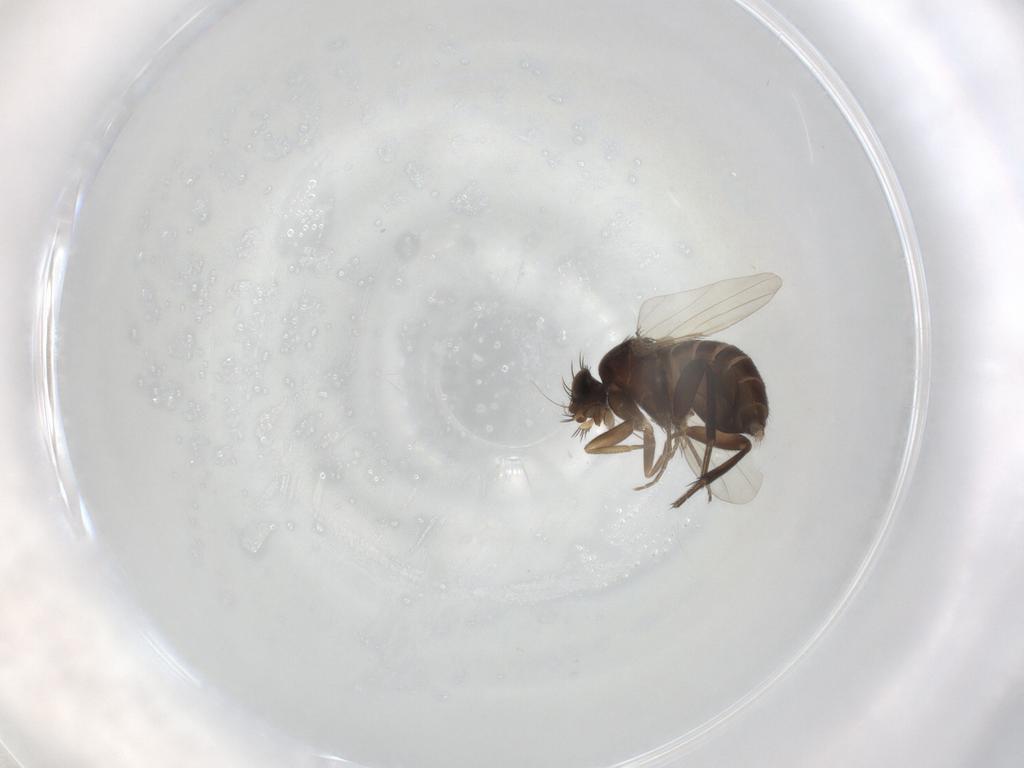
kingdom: Animalia
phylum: Arthropoda
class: Insecta
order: Diptera
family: Phoridae
